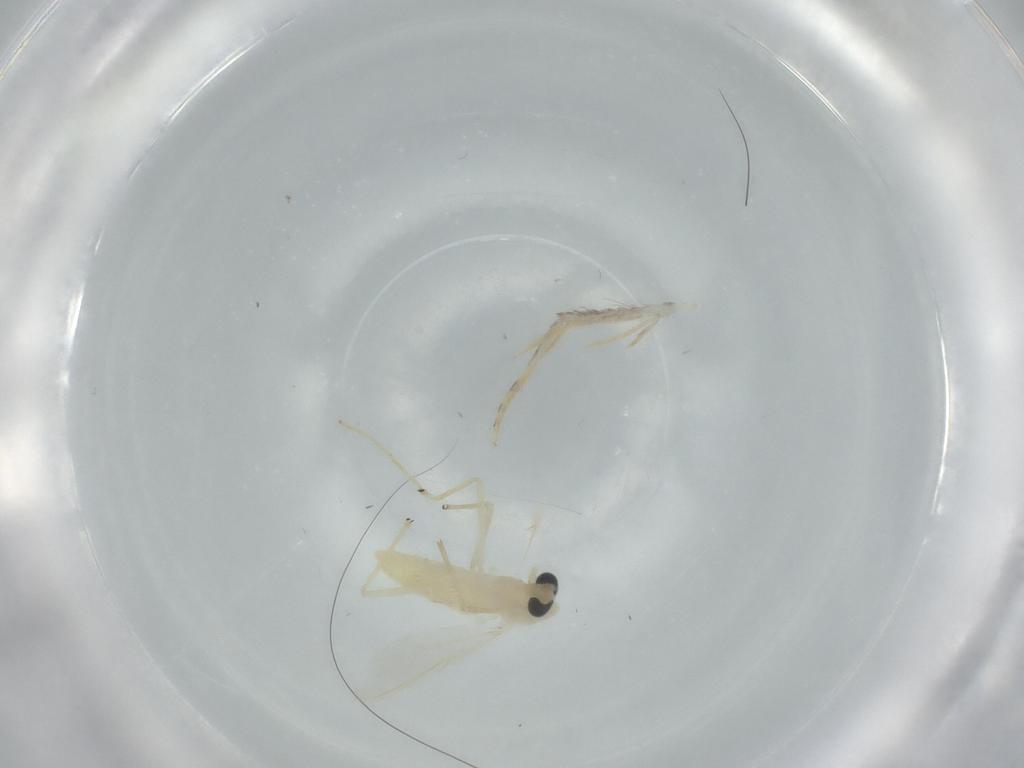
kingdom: Animalia
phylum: Arthropoda
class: Insecta
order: Diptera
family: Chironomidae
